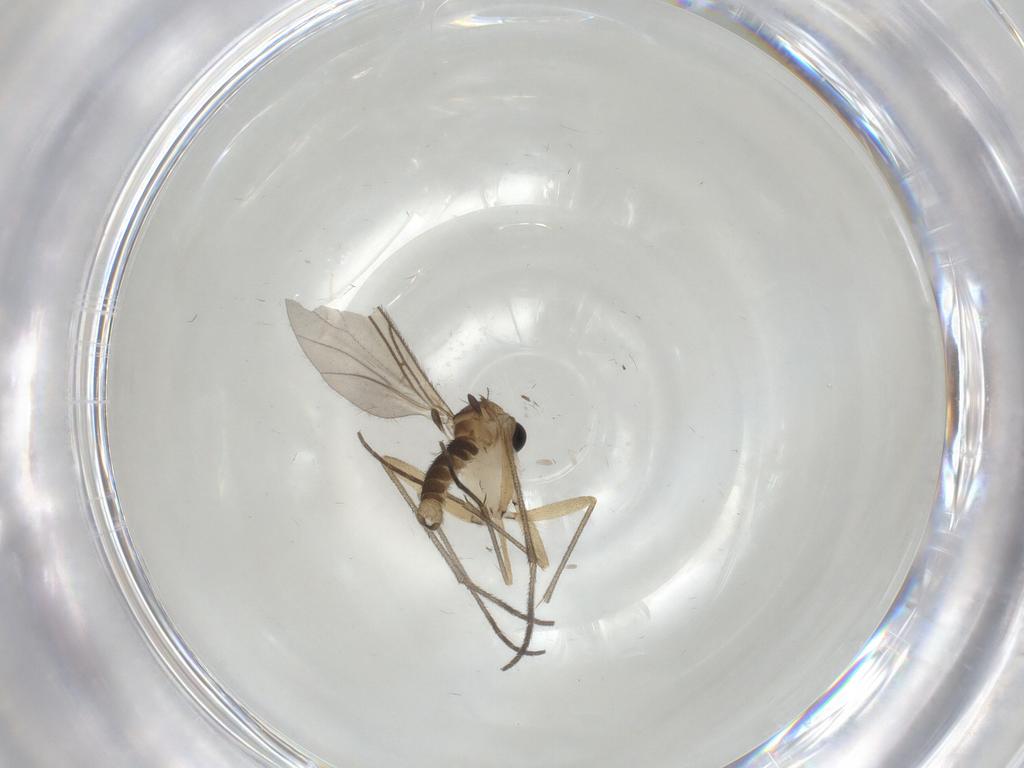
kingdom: Animalia
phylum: Arthropoda
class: Insecta
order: Diptera
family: Sciaridae
